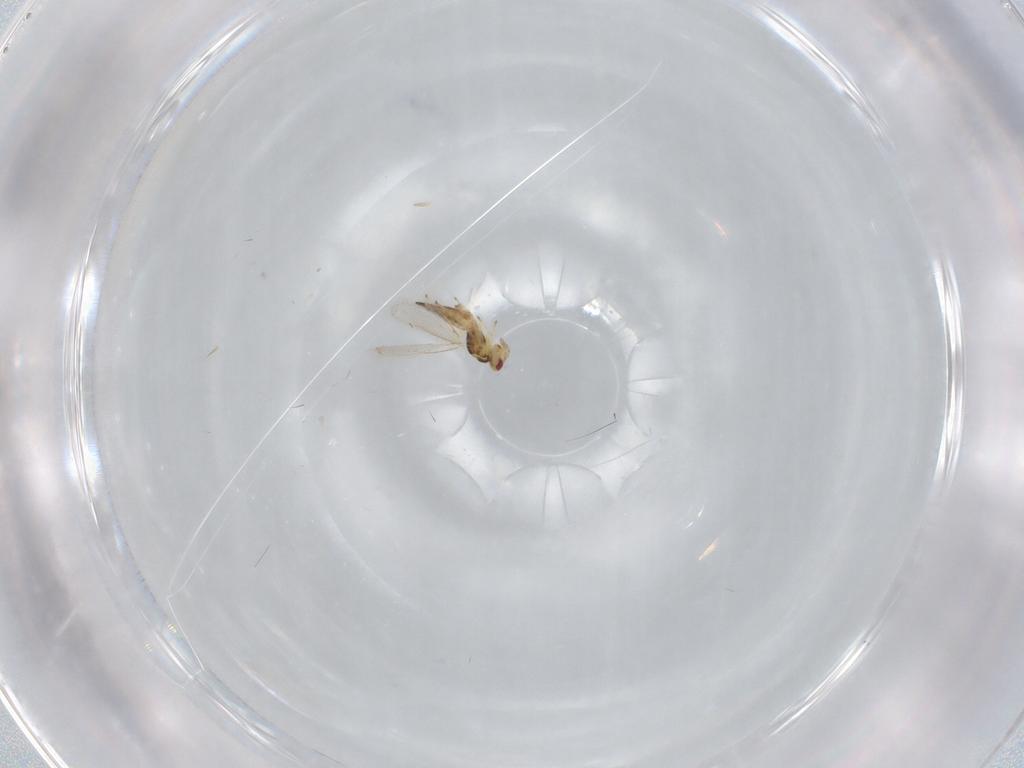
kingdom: Animalia
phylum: Arthropoda
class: Insecta
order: Hymenoptera
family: Eulophidae
